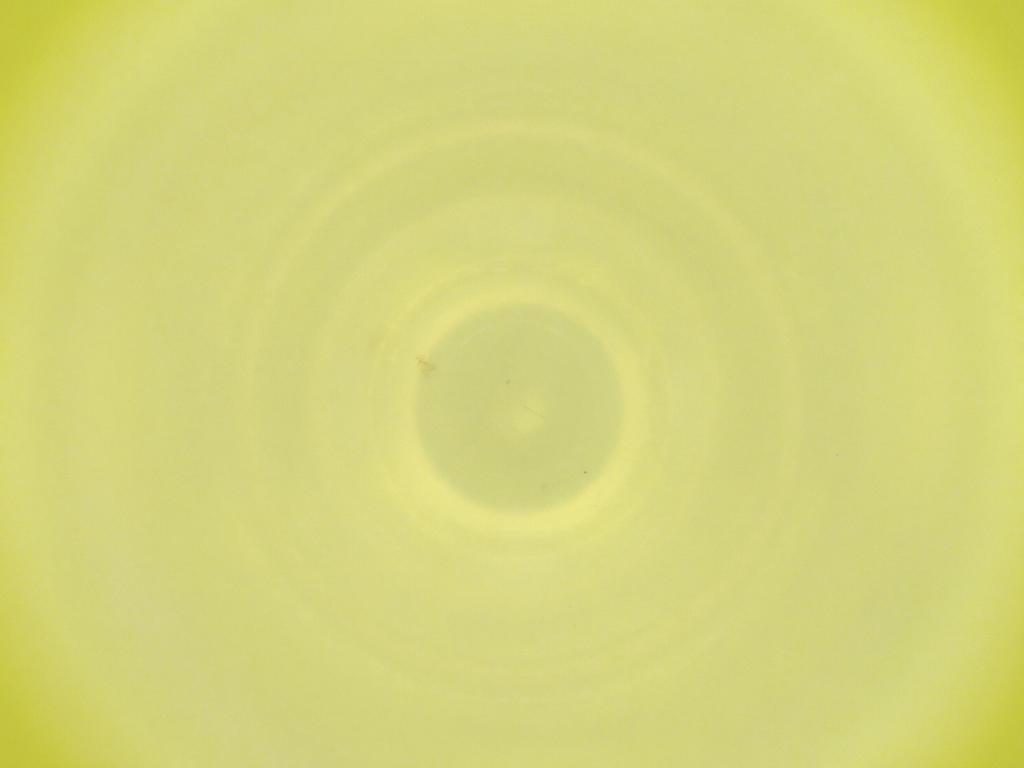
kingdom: Animalia
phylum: Arthropoda
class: Insecta
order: Diptera
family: Cecidomyiidae
